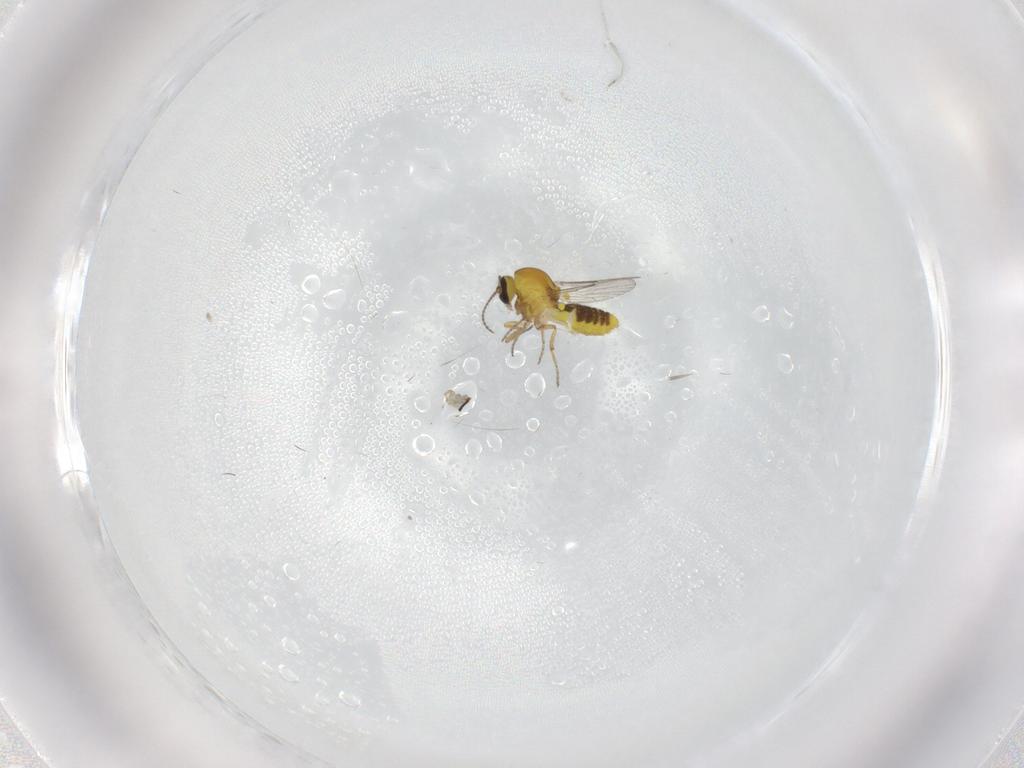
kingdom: Animalia
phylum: Arthropoda
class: Insecta
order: Diptera
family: Ceratopogonidae
